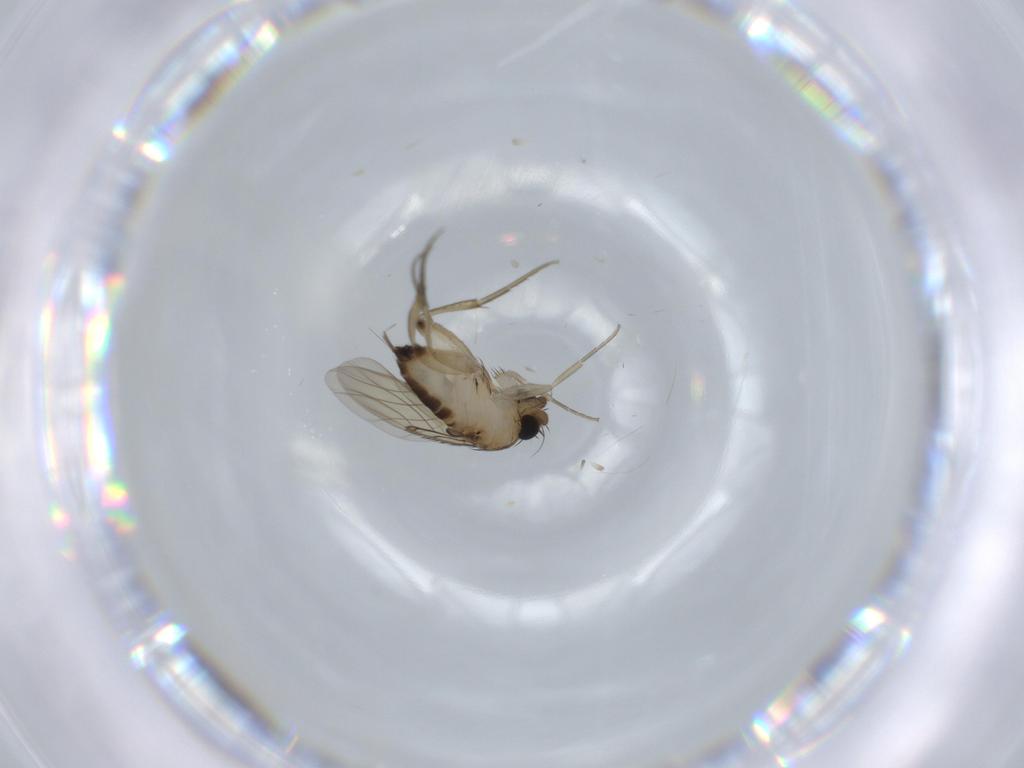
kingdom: Animalia
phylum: Arthropoda
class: Insecta
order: Diptera
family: Phoridae
